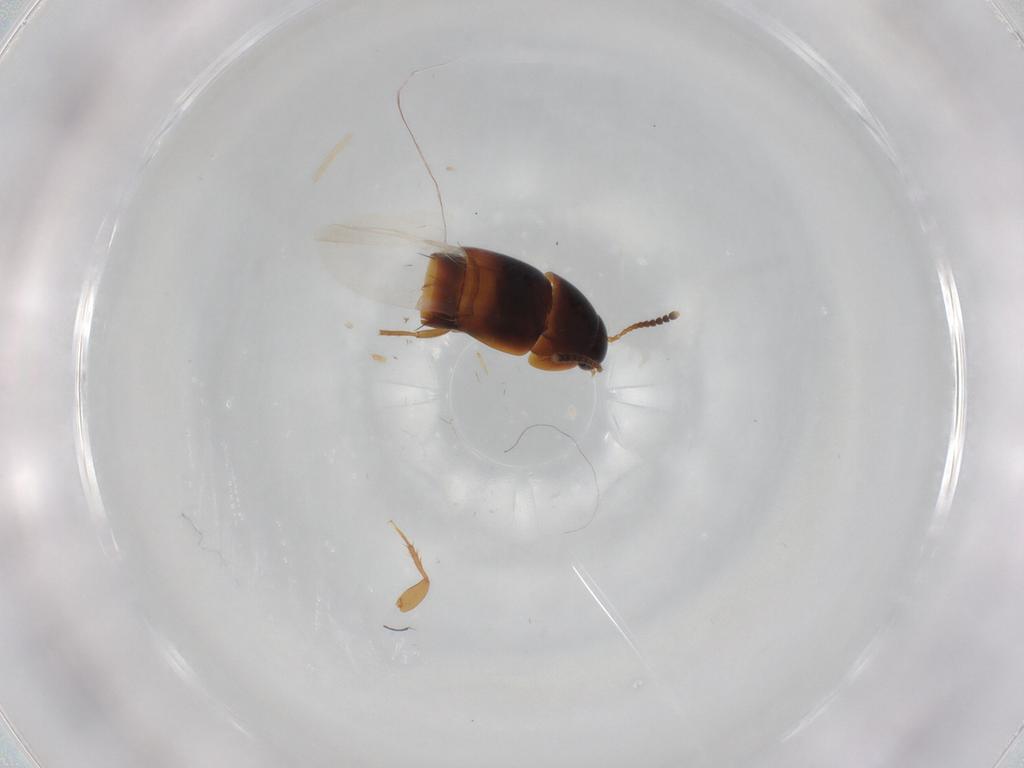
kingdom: Animalia
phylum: Arthropoda
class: Insecta
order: Coleoptera
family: Staphylinidae
